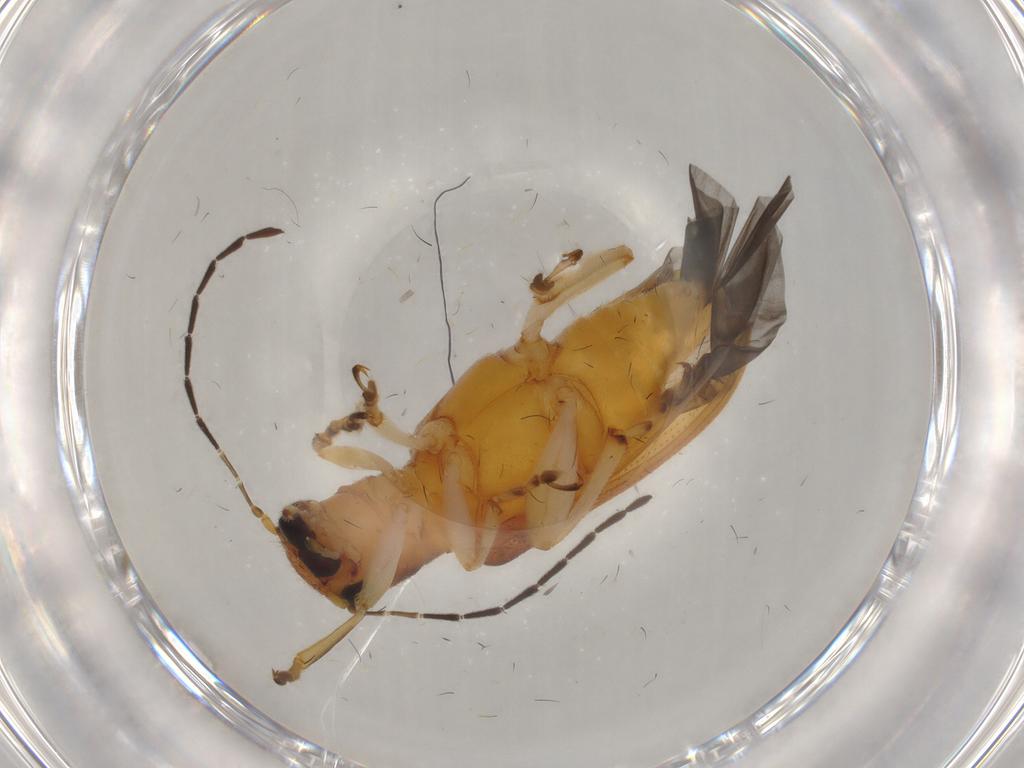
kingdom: Animalia
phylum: Arthropoda
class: Insecta
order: Coleoptera
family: Chrysomelidae
